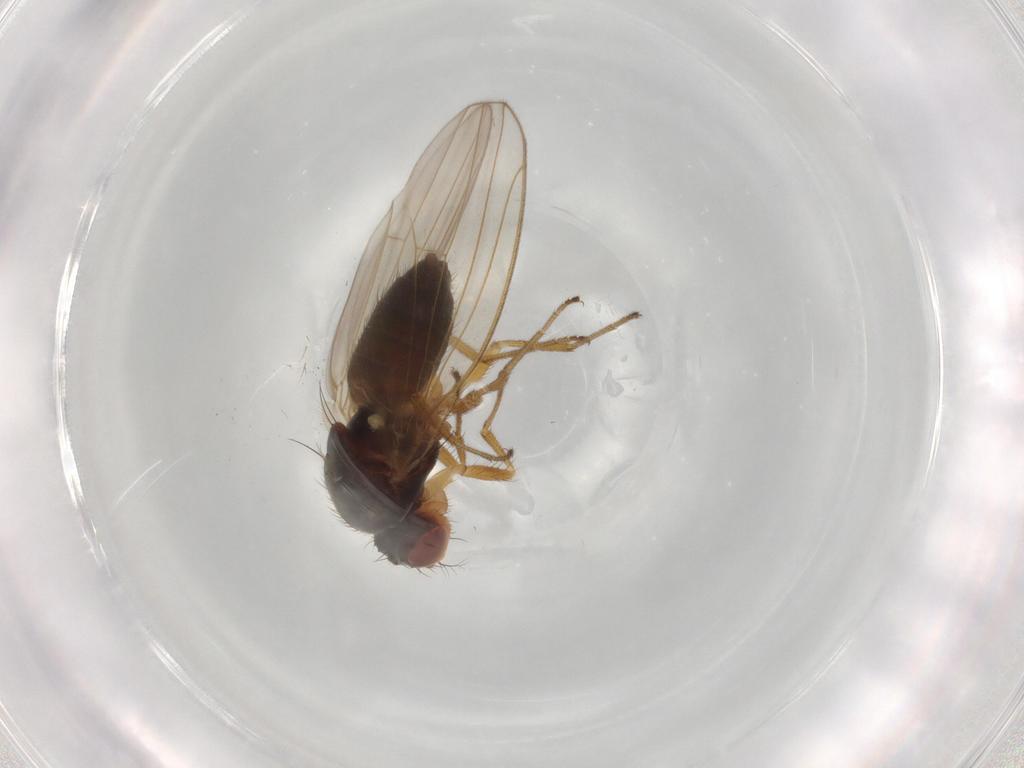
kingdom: Animalia
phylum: Arthropoda
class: Insecta
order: Diptera
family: Drosophilidae
